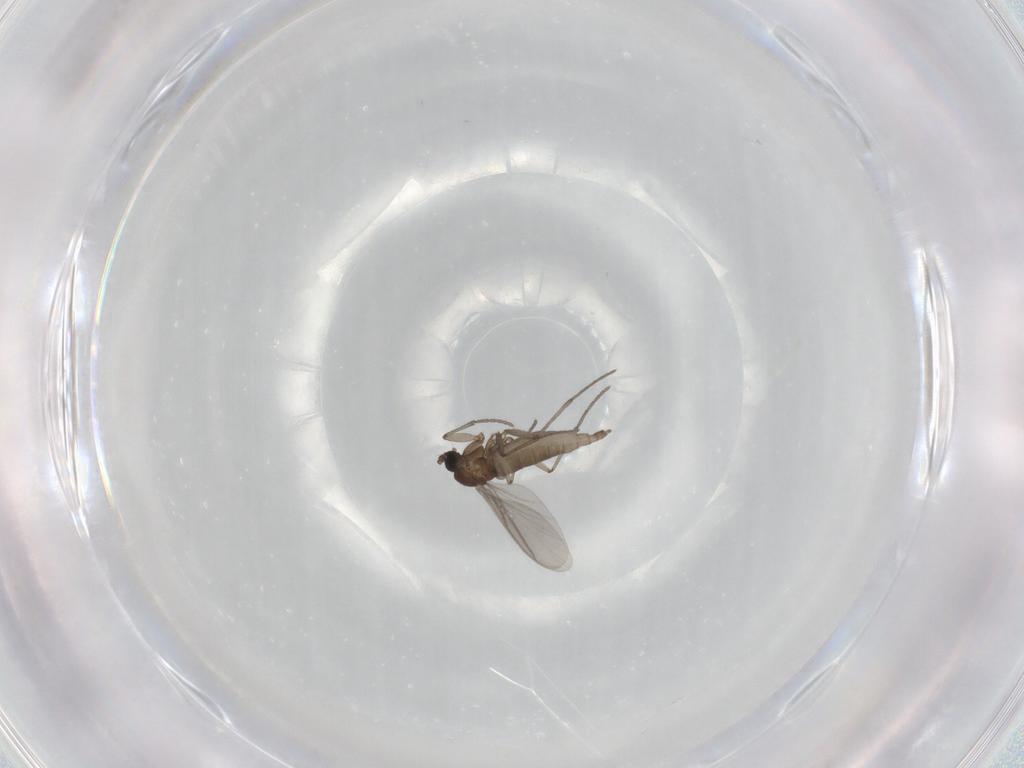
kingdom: Animalia
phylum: Arthropoda
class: Insecta
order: Diptera
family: Sciaridae
